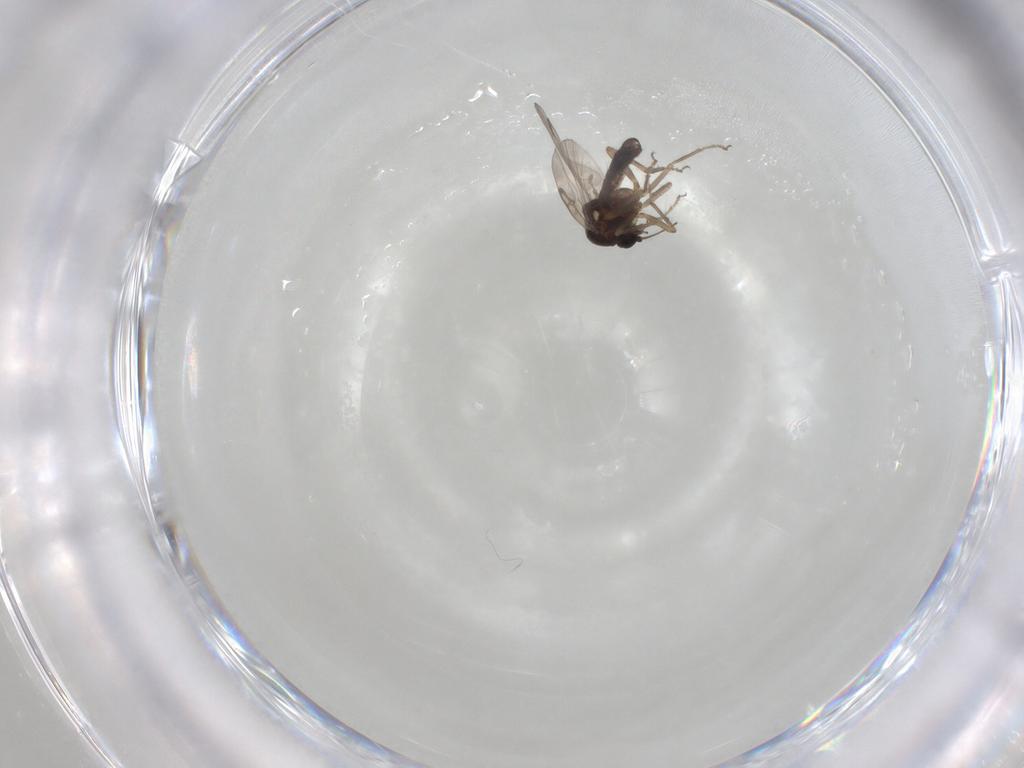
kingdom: Animalia
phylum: Arthropoda
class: Insecta
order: Diptera
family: Ceratopogonidae
